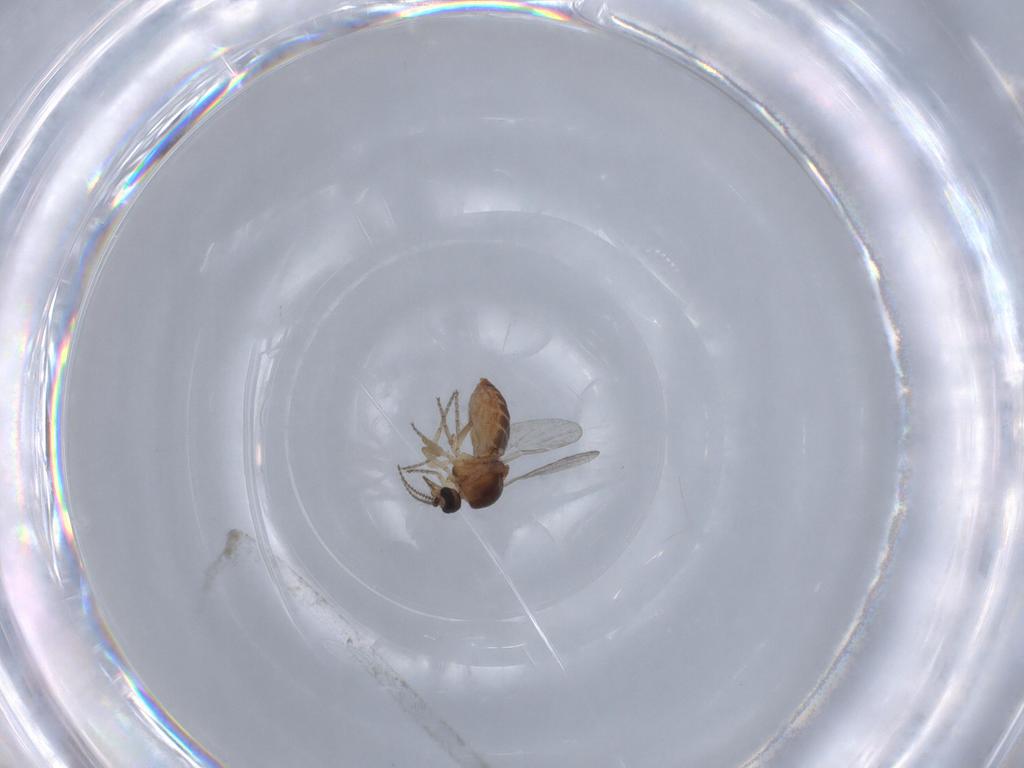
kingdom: Animalia
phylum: Arthropoda
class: Insecta
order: Diptera
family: Ceratopogonidae
